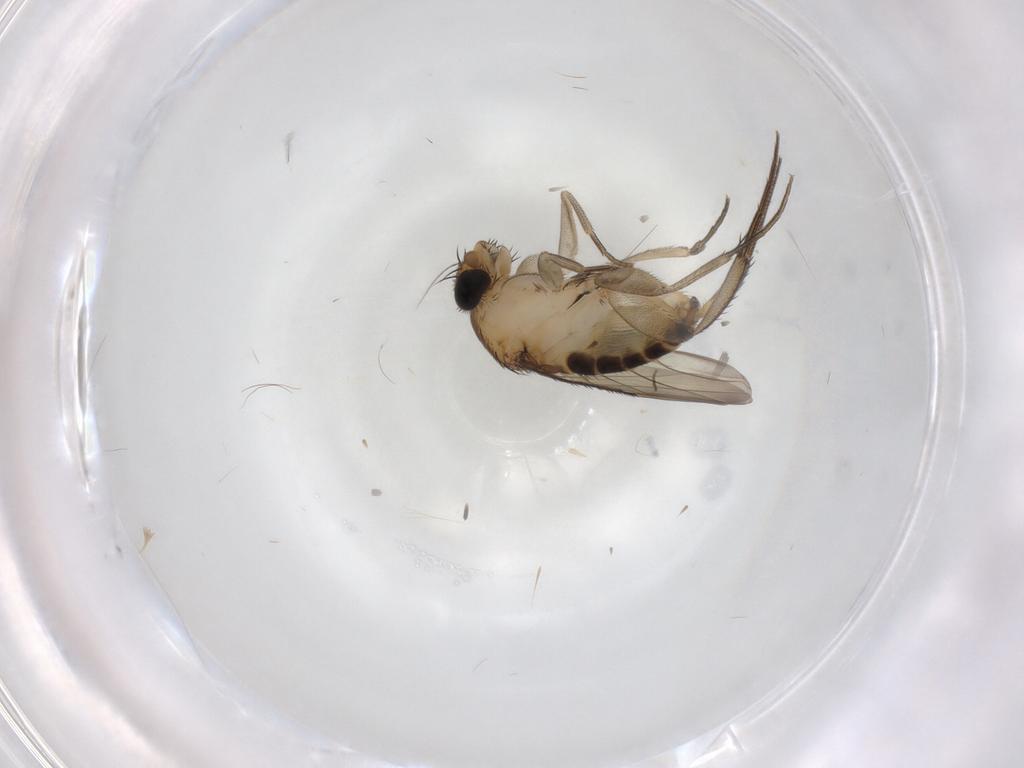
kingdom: Animalia
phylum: Arthropoda
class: Insecta
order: Diptera
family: Phoridae
